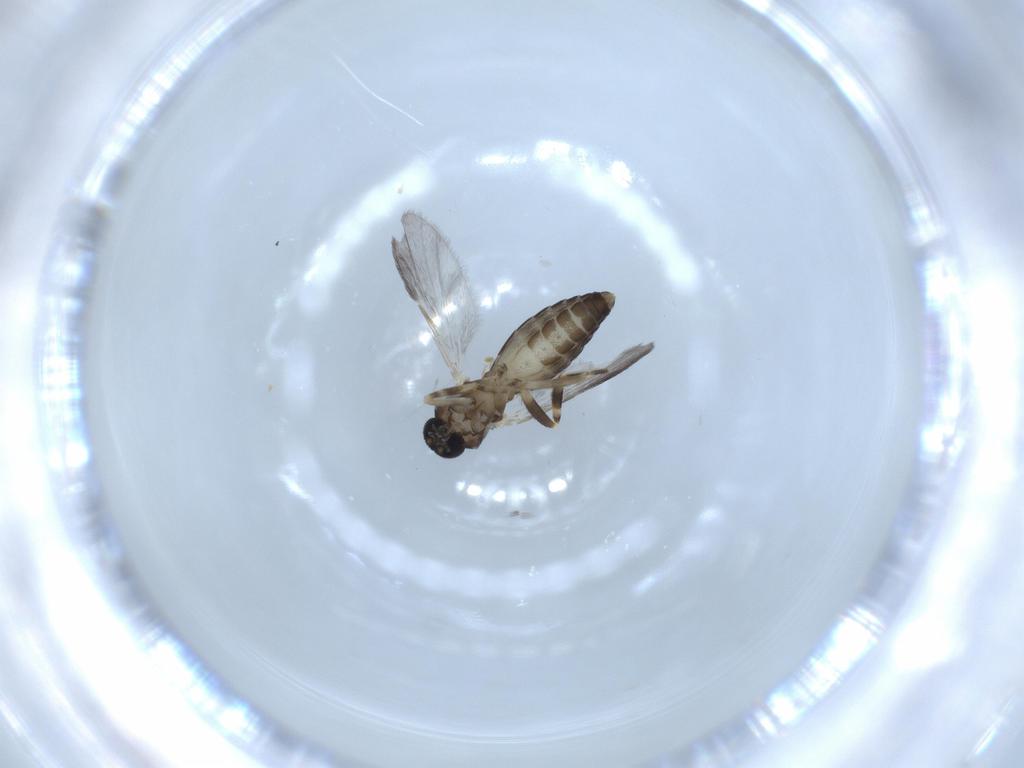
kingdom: Animalia
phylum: Arthropoda
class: Insecta
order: Diptera
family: Ceratopogonidae
